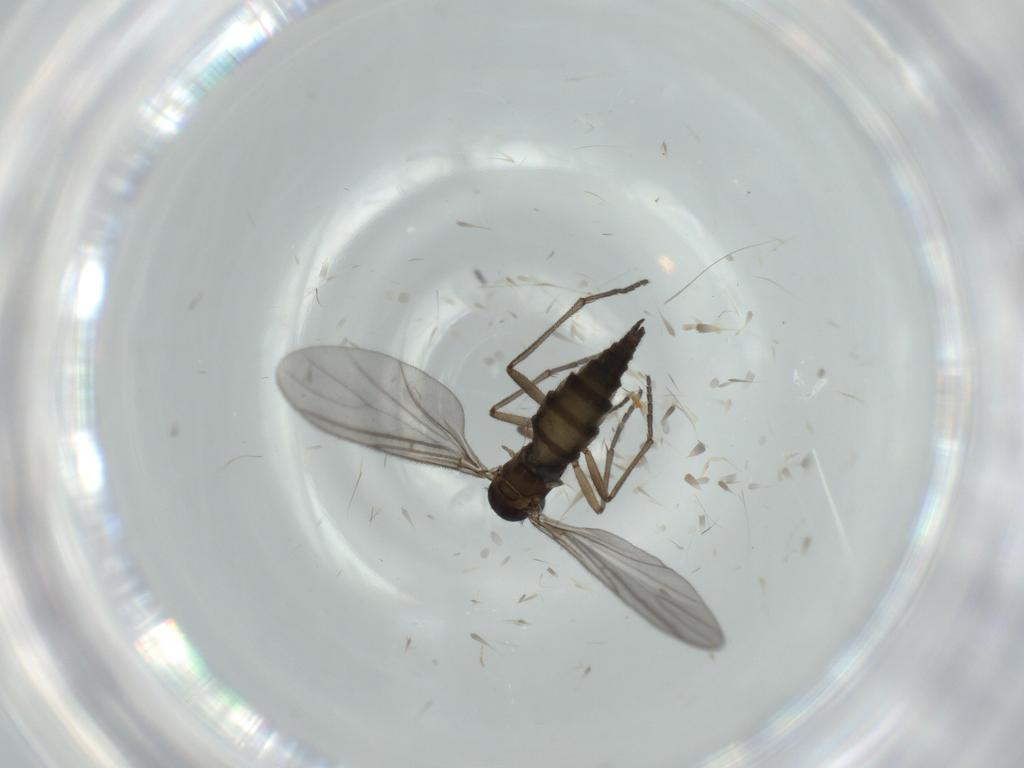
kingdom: Animalia
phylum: Arthropoda
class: Insecta
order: Diptera
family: Sciaridae
